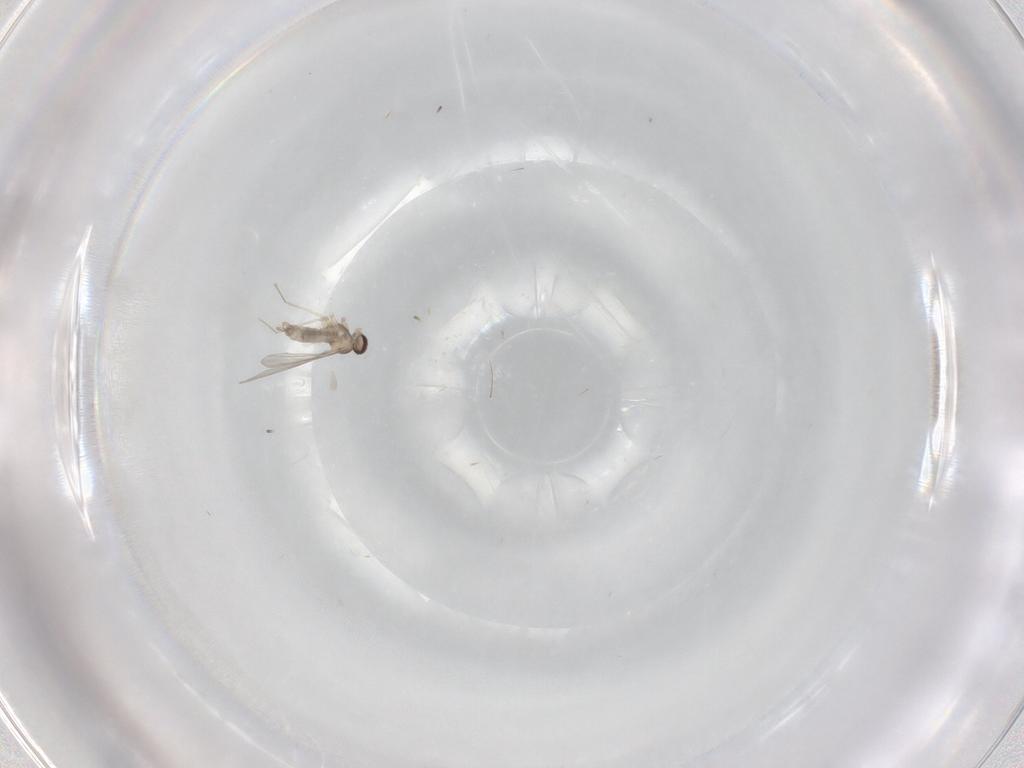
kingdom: Animalia
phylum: Arthropoda
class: Insecta
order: Diptera
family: Cecidomyiidae
